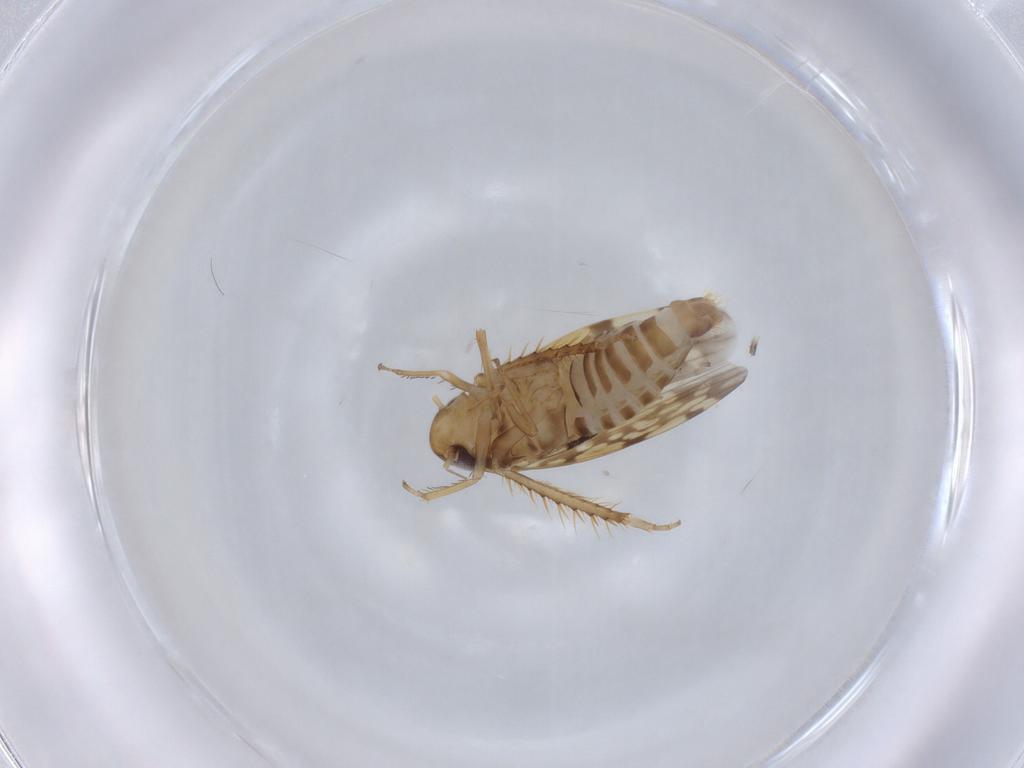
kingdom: Animalia
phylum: Arthropoda
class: Insecta
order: Hemiptera
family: Cicadellidae
